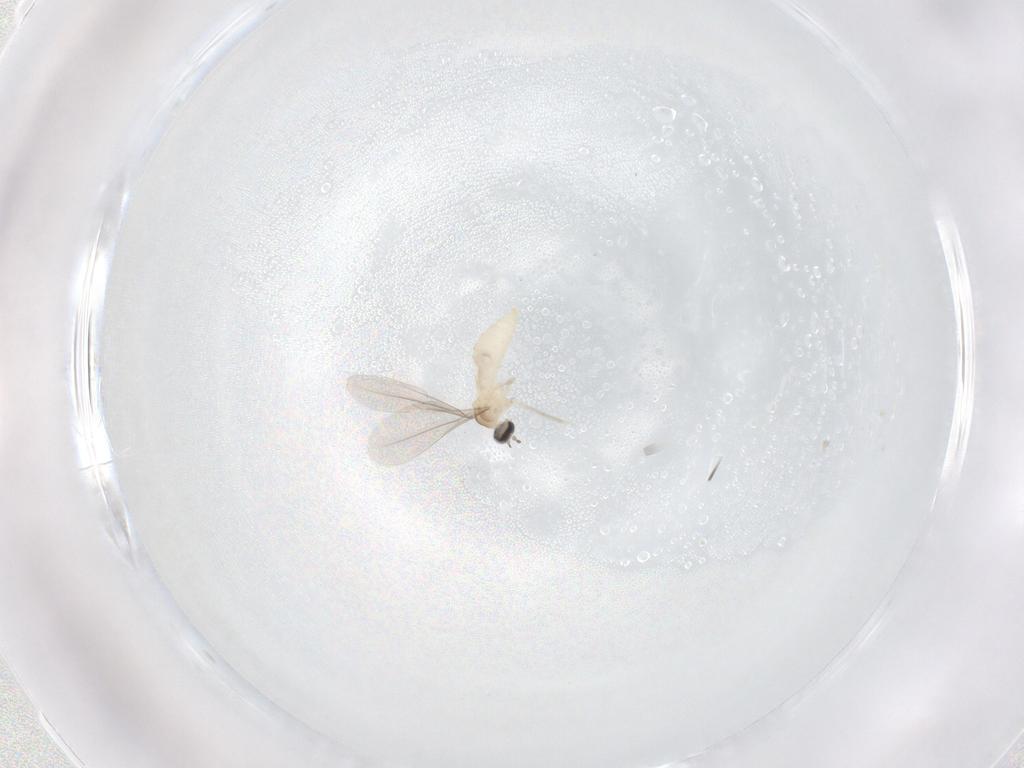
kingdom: Animalia
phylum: Arthropoda
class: Insecta
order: Diptera
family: Cecidomyiidae
